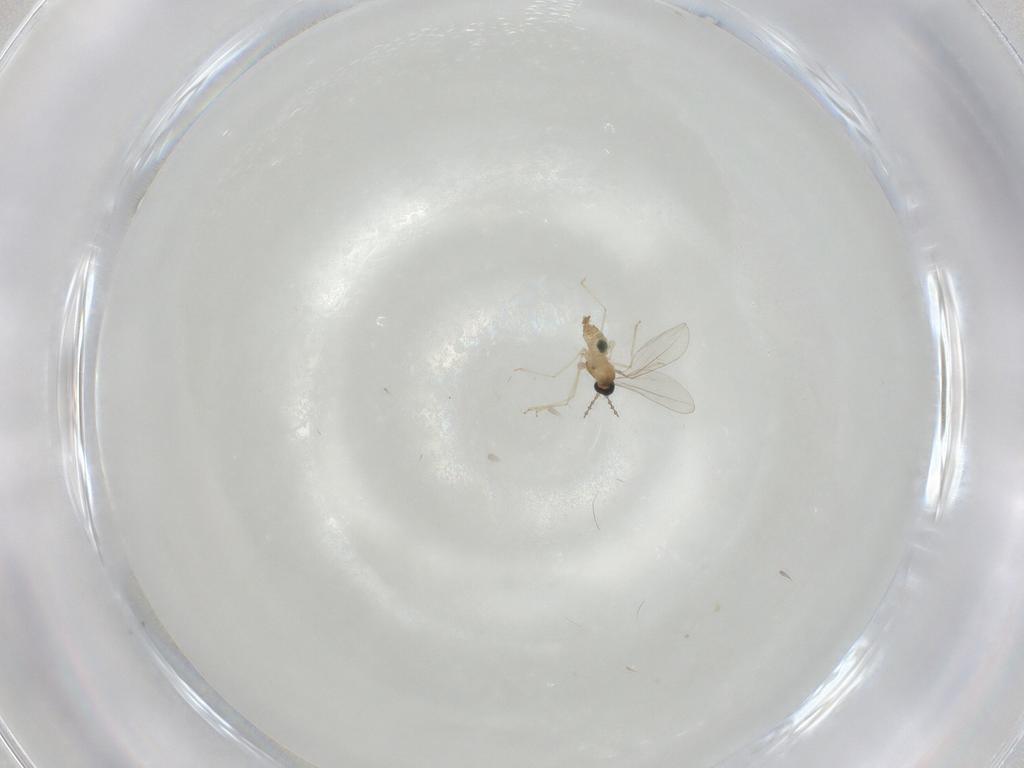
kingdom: Animalia
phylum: Arthropoda
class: Insecta
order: Diptera
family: Cecidomyiidae
